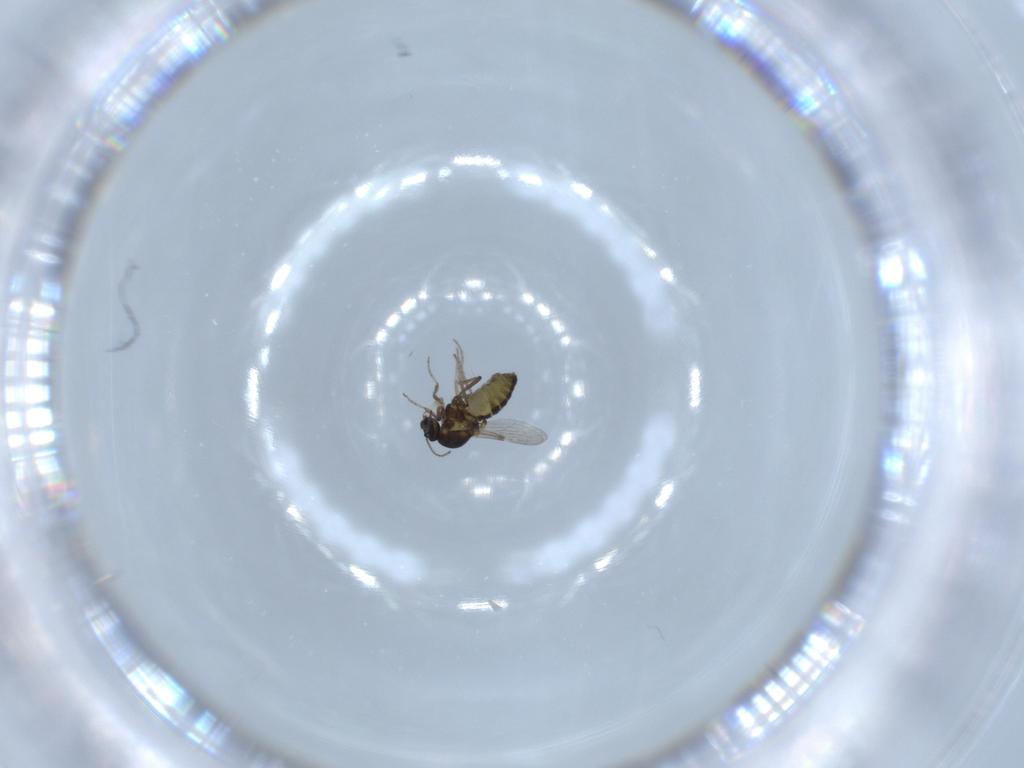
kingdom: Animalia
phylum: Arthropoda
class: Insecta
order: Diptera
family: Ceratopogonidae
